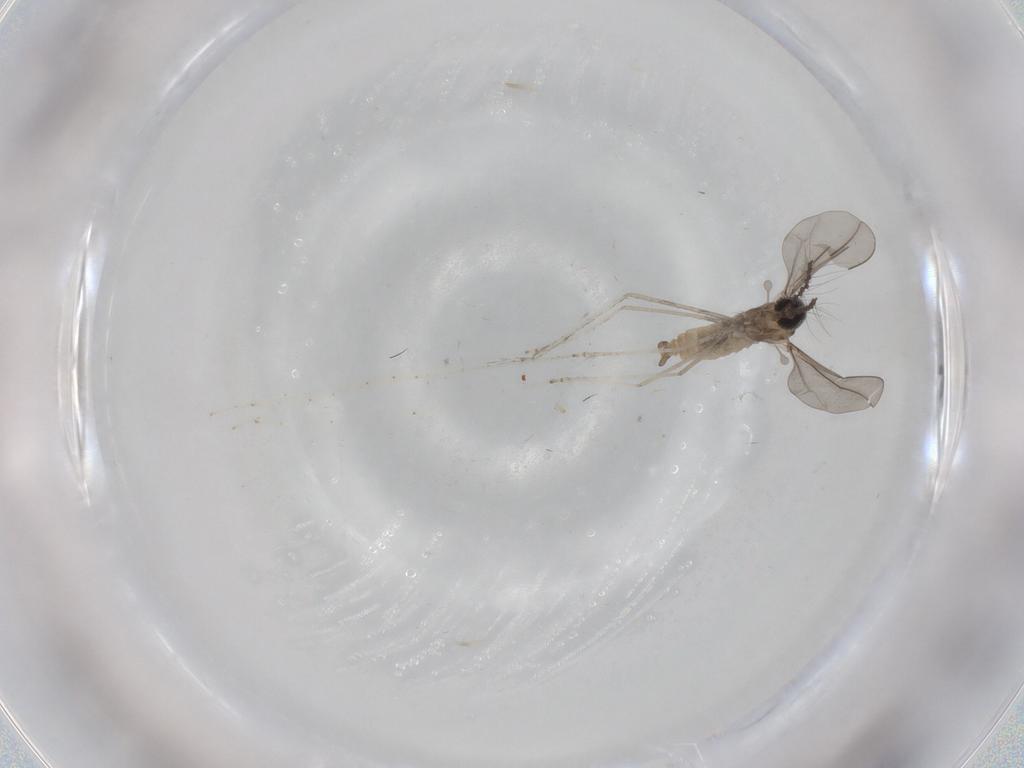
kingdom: Animalia
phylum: Arthropoda
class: Insecta
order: Diptera
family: Cecidomyiidae
